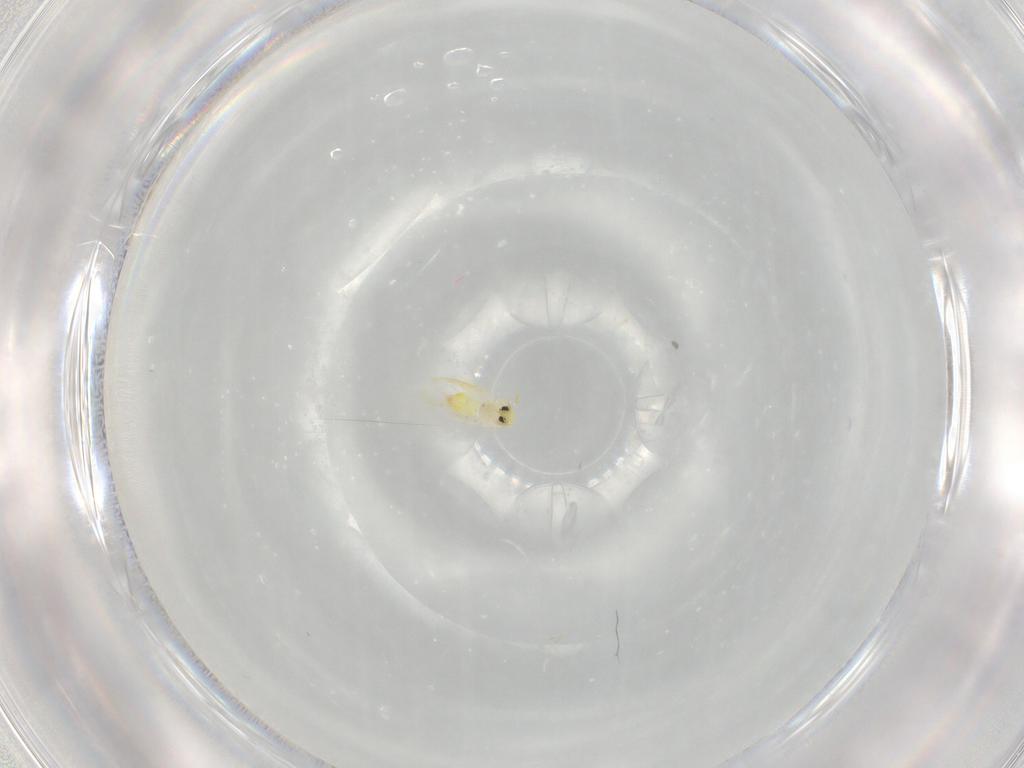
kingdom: Animalia
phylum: Arthropoda
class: Insecta
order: Hemiptera
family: Aleyrodidae
